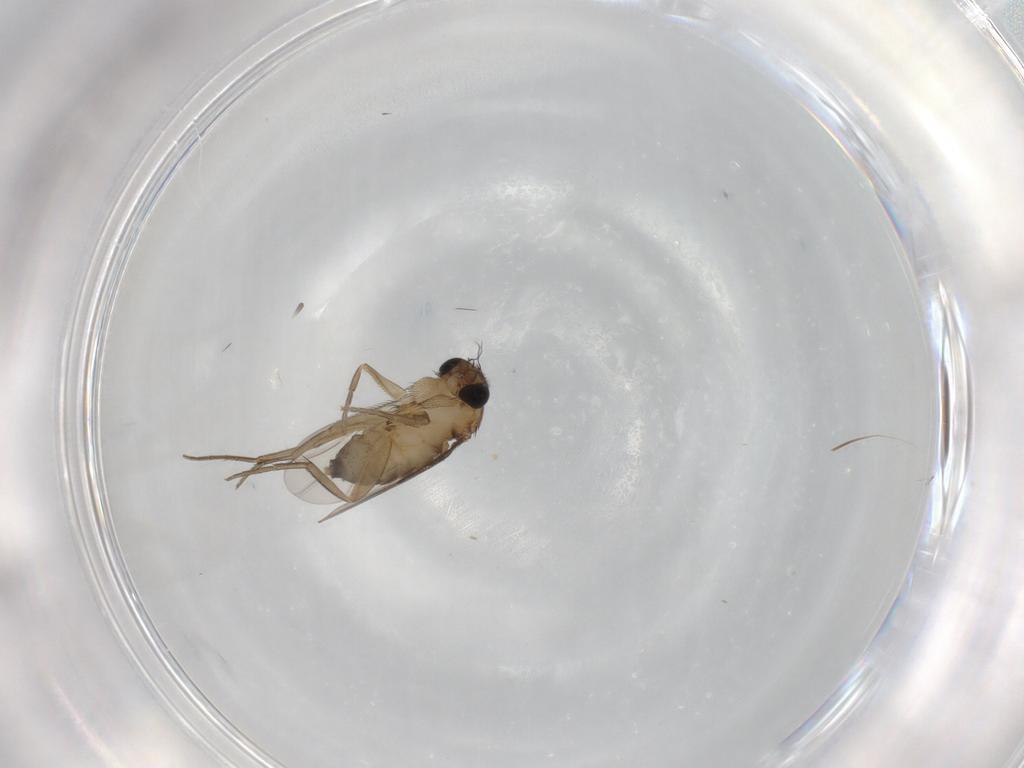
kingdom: Animalia
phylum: Arthropoda
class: Insecta
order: Diptera
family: Phoridae
